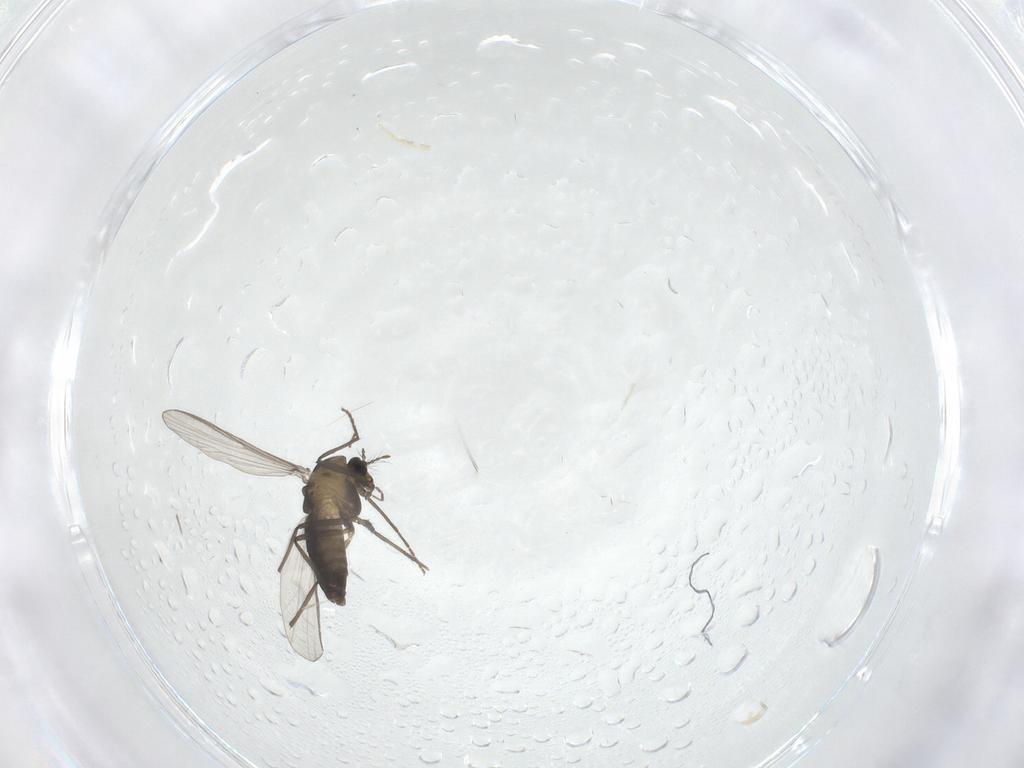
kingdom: Animalia
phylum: Arthropoda
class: Insecta
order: Diptera
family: Chironomidae
